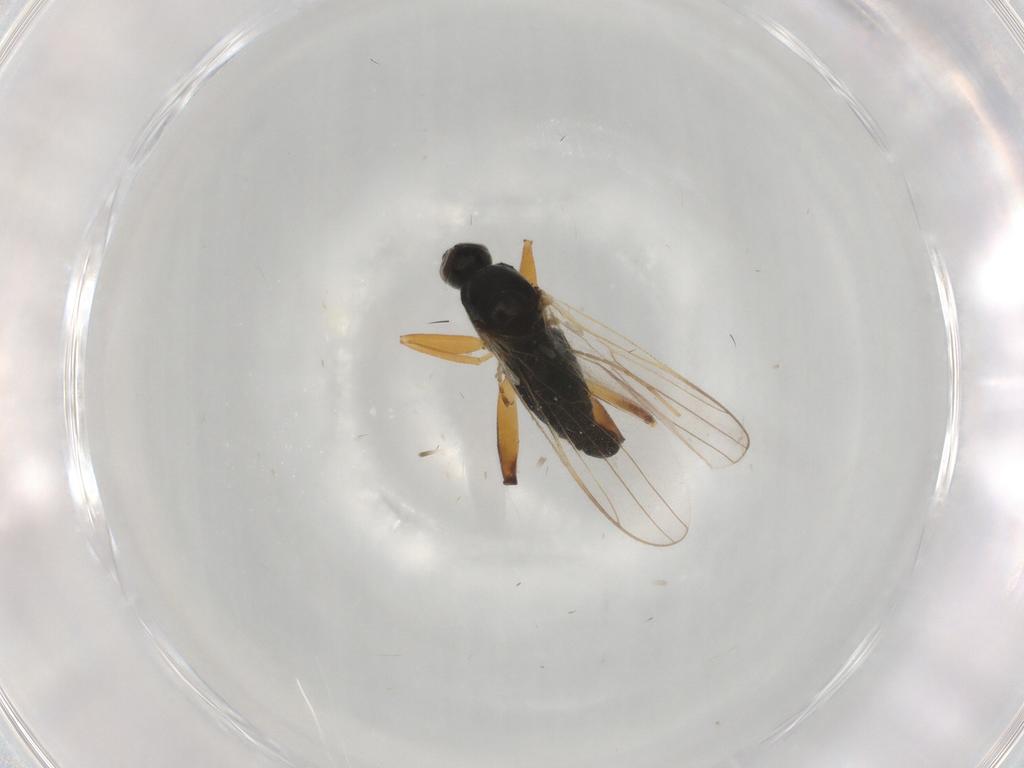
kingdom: Animalia
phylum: Arthropoda
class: Insecta
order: Diptera
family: Hybotidae
